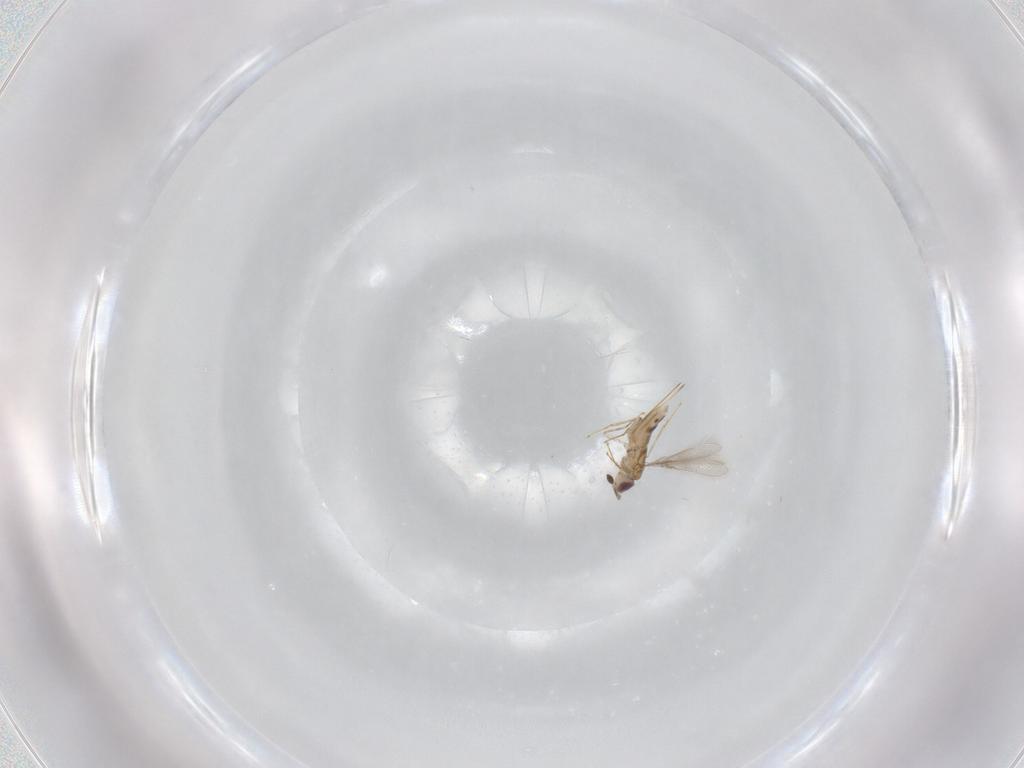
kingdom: Animalia
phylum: Arthropoda
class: Insecta
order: Hymenoptera
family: Mymaridae
